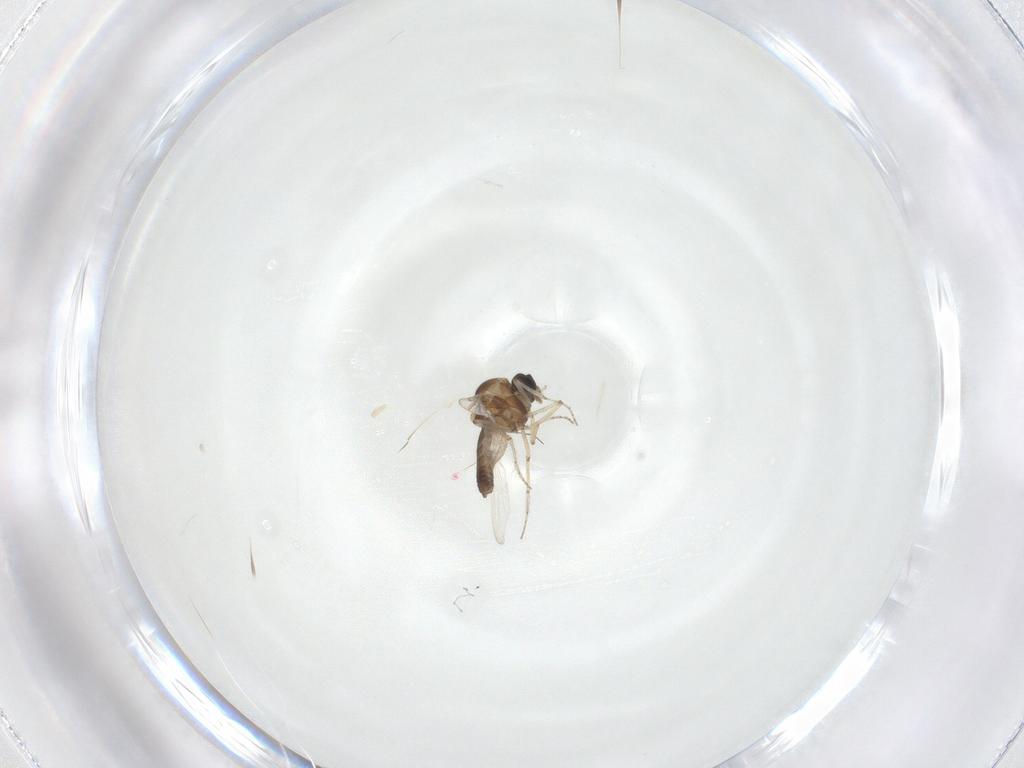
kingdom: Animalia
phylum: Arthropoda
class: Insecta
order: Diptera
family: Ceratopogonidae
